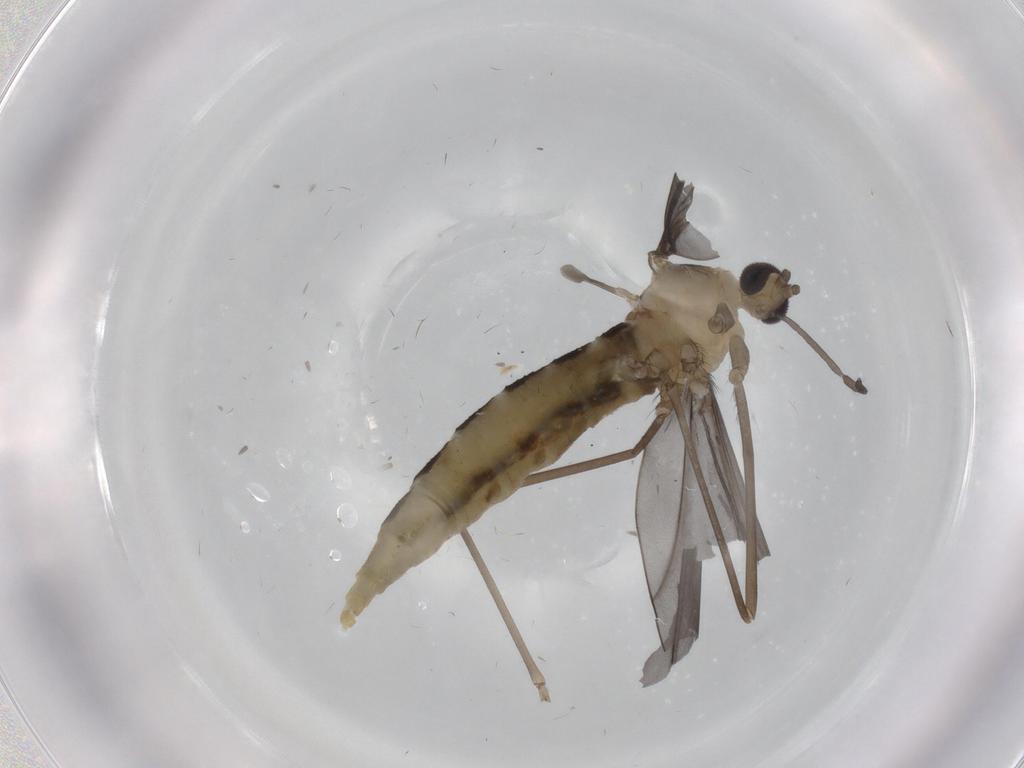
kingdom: Animalia
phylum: Arthropoda
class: Insecta
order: Diptera
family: Cecidomyiidae
